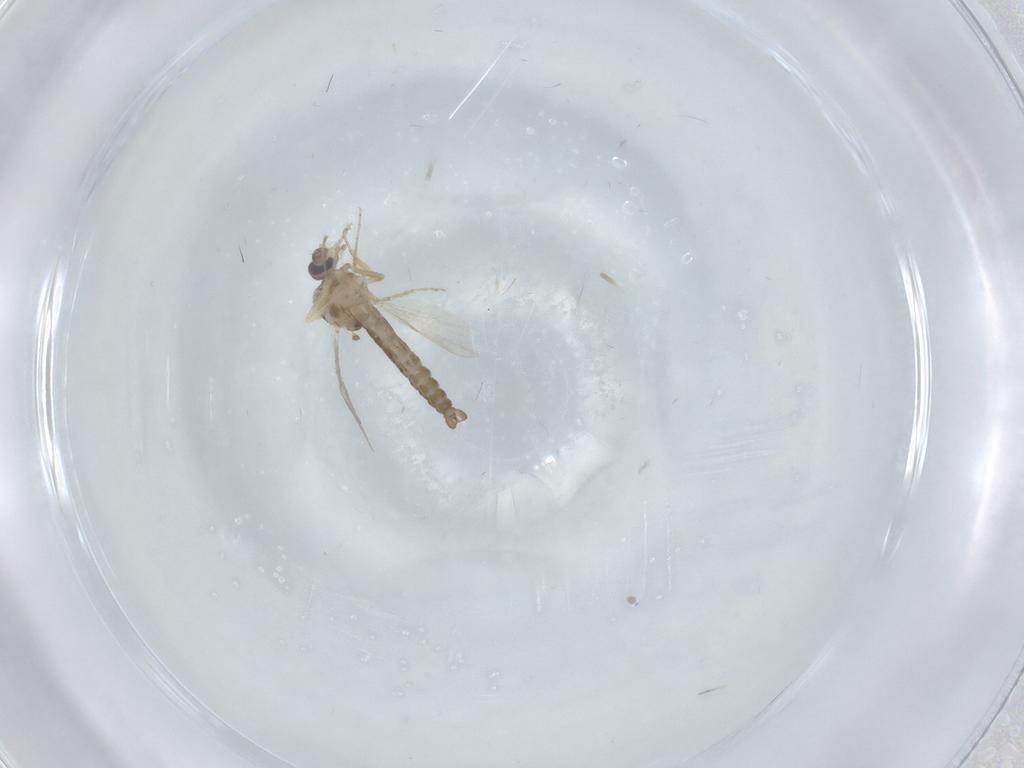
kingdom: Animalia
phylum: Arthropoda
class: Insecta
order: Diptera
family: Ceratopogonidae
